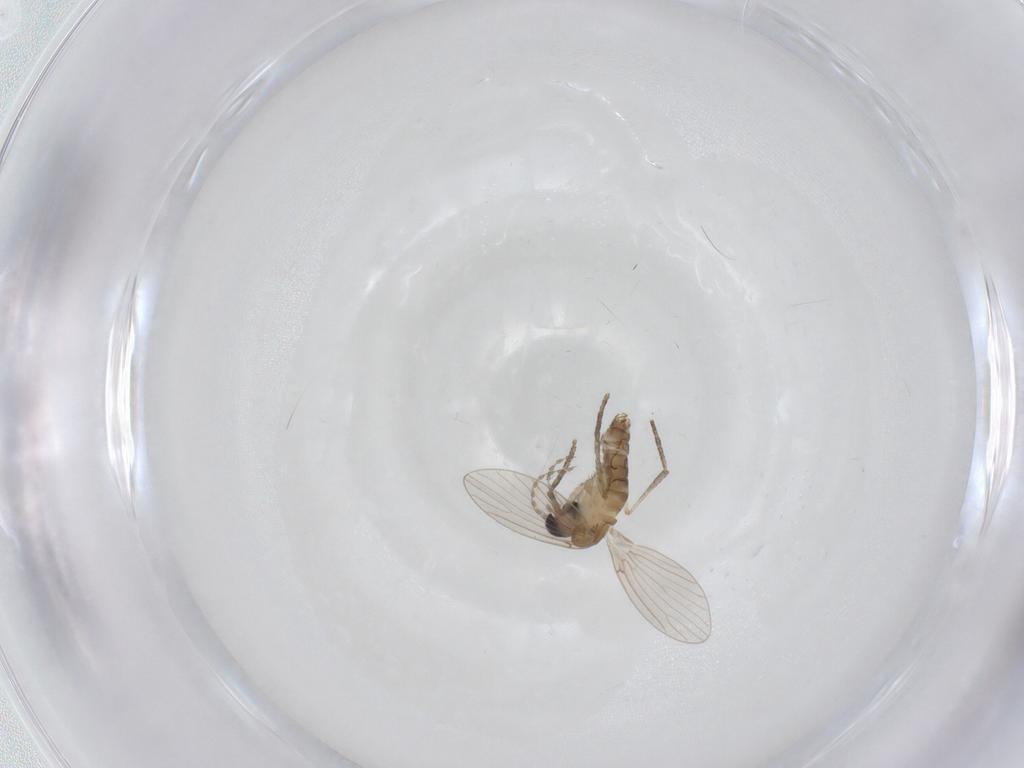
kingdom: Animalia
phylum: Arthropoda
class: Insecta
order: Diptera
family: Psychodidae
